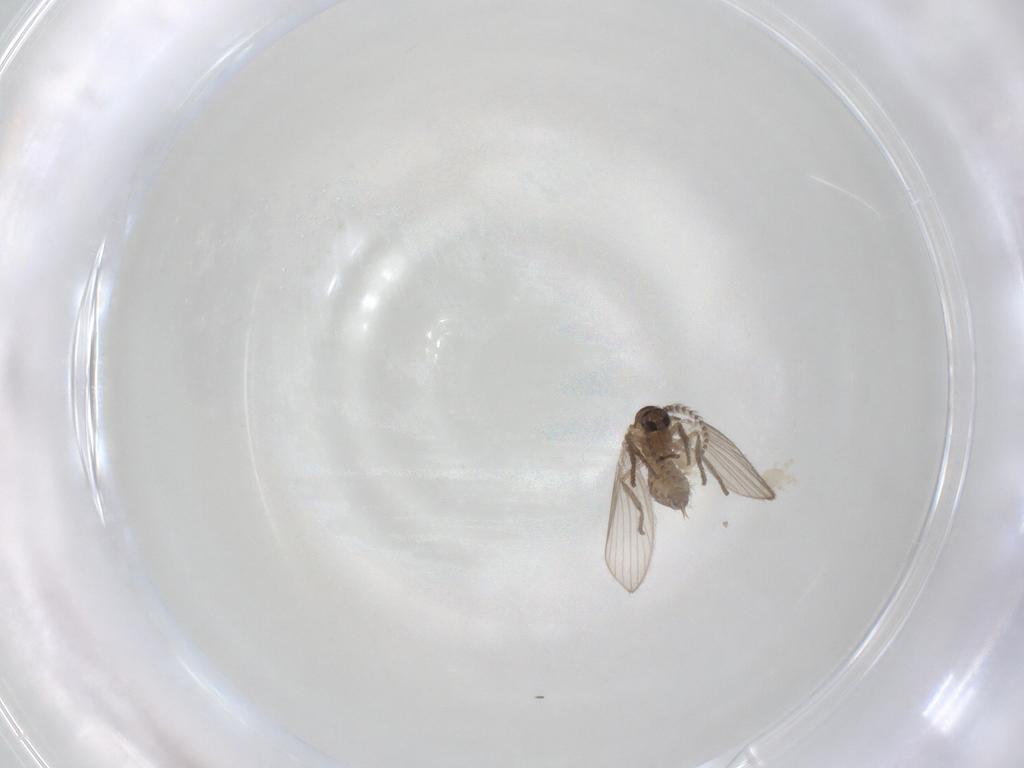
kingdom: Animalia
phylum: Arthropoda
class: Insecta
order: Diptera
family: Psychodidae
